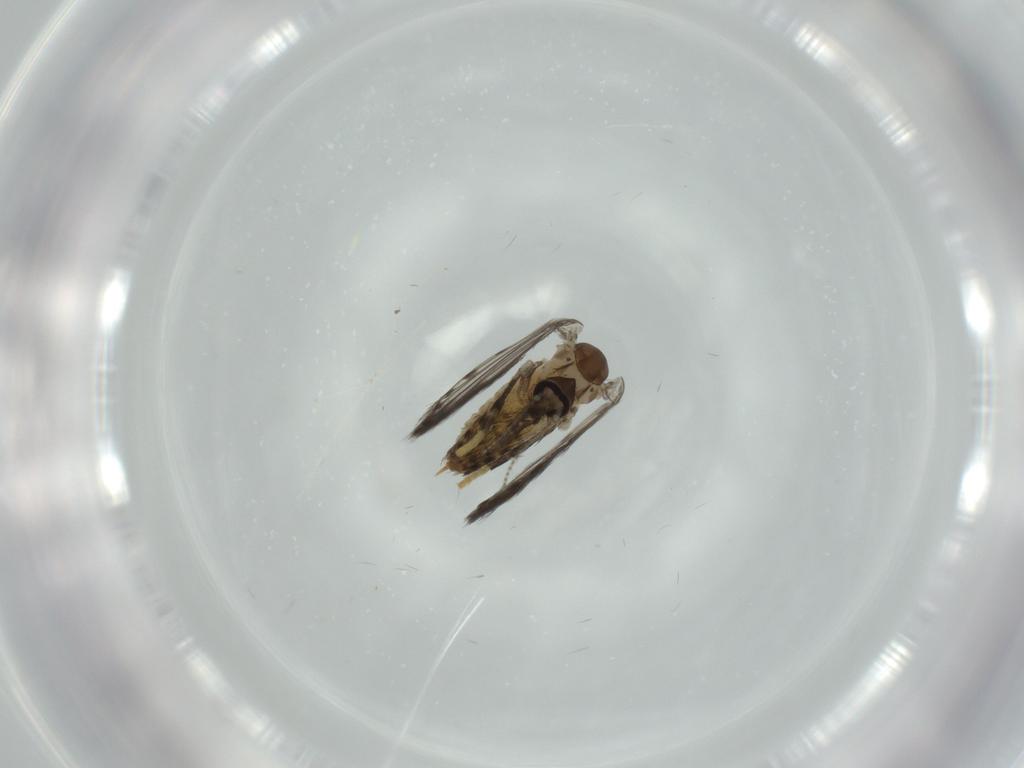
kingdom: Animalia
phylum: Arthropoda
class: Insecta
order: Diptera
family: Cecidomyiidae
